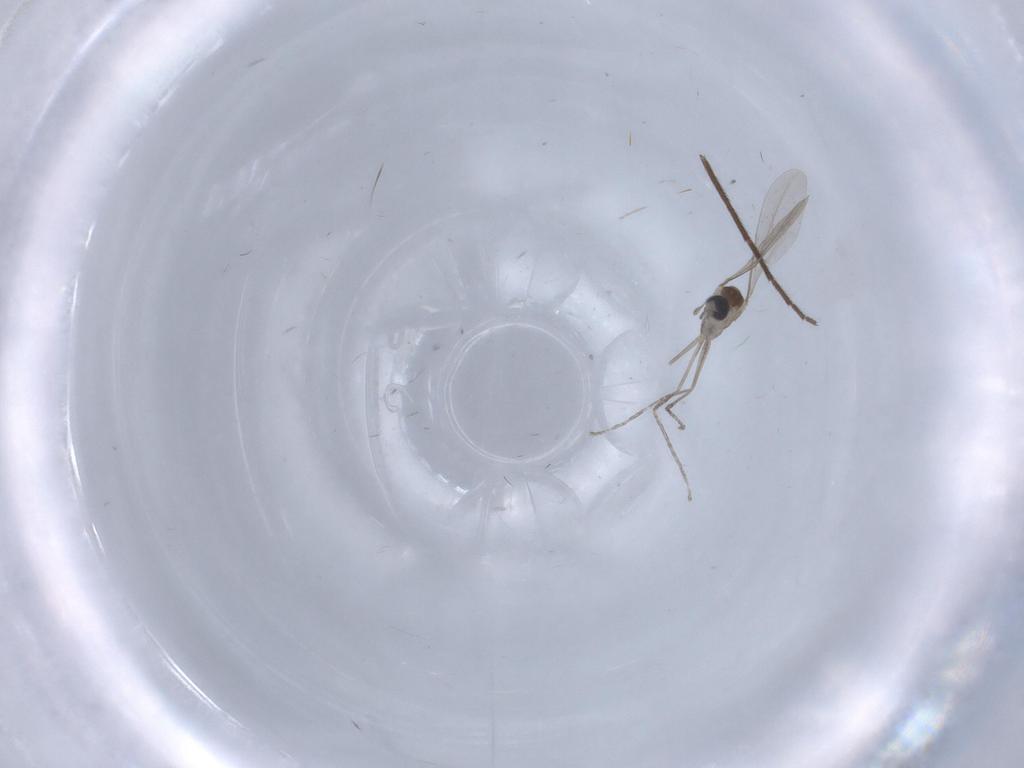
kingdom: Animalia
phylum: Arthropoda
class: Insecta
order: Diptera
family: Cecidomyiidae
